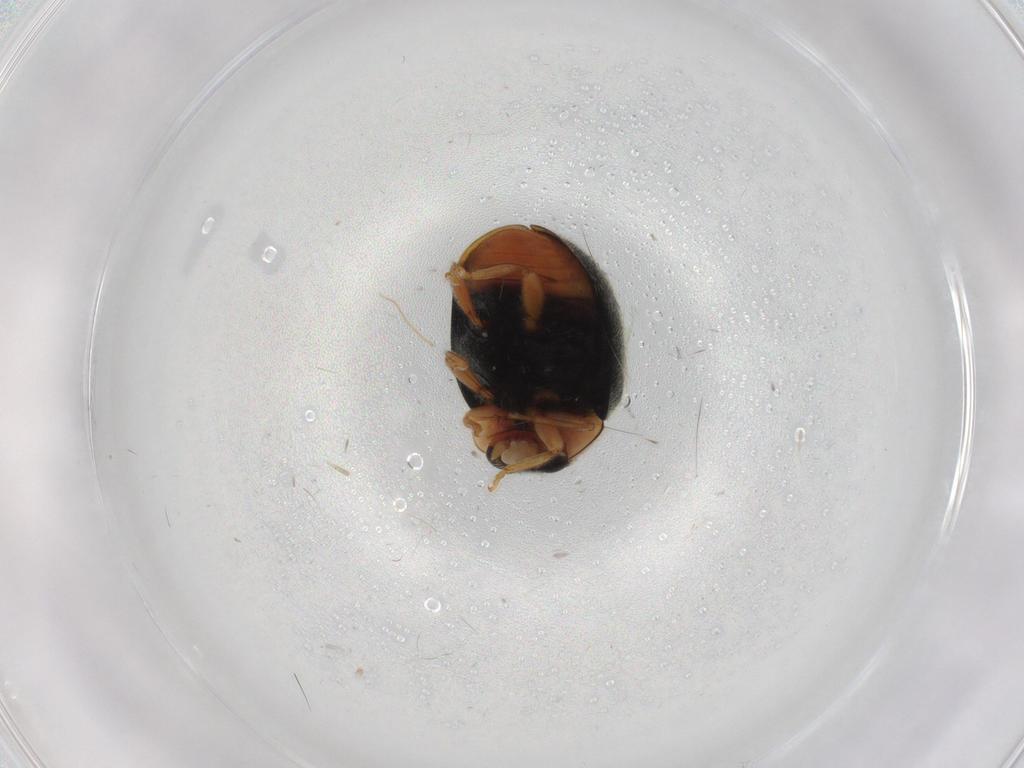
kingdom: Animalia
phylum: Arthropoda
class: Insecta
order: Coleoptera
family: Coccinellidae
